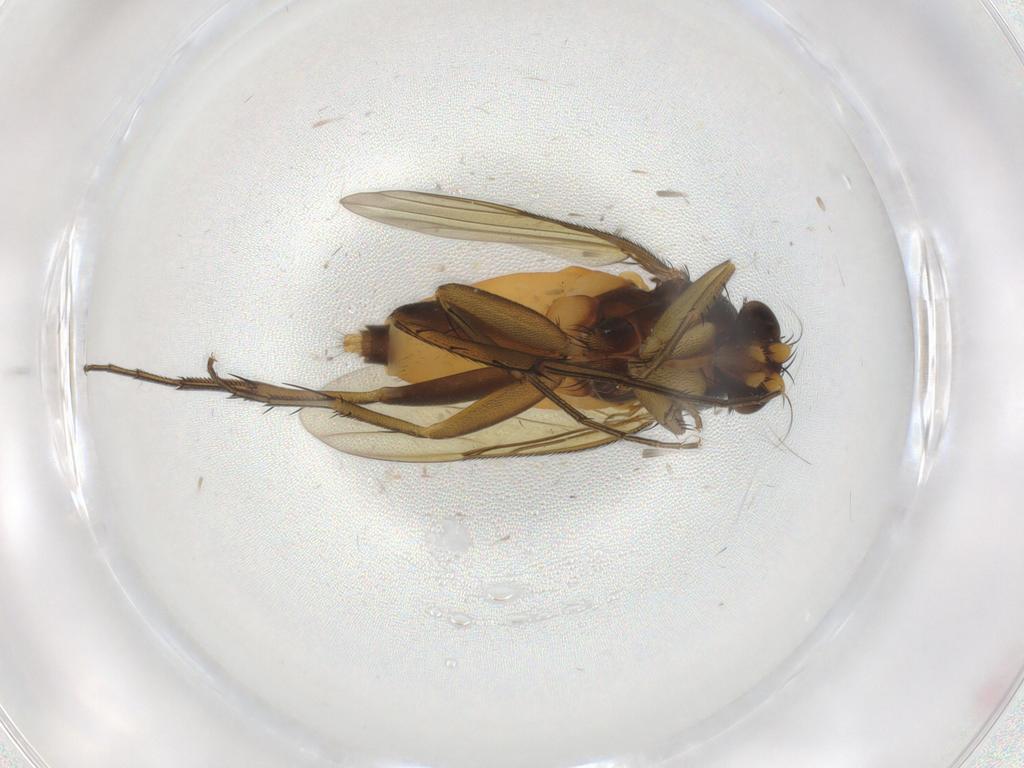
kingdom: Animalia
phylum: Arthropoda
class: Insecta
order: Diptera
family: Phoridae
